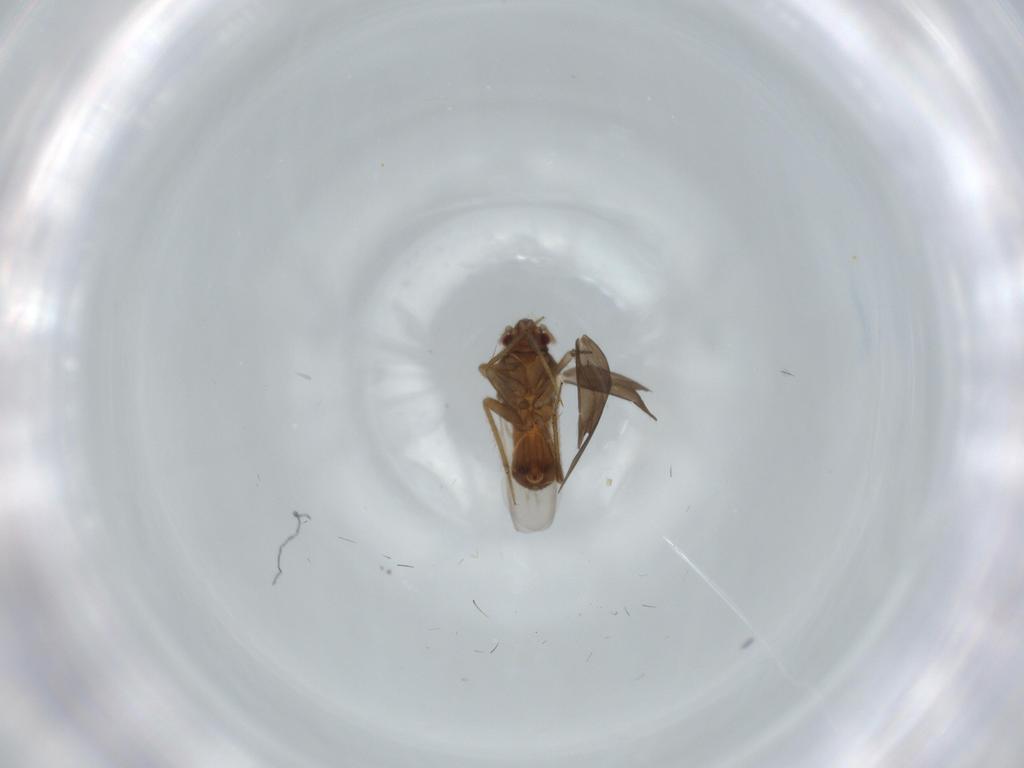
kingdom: Animalia
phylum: Arthropoda
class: Insecta
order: Hemiptera
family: Ceratocombidae
